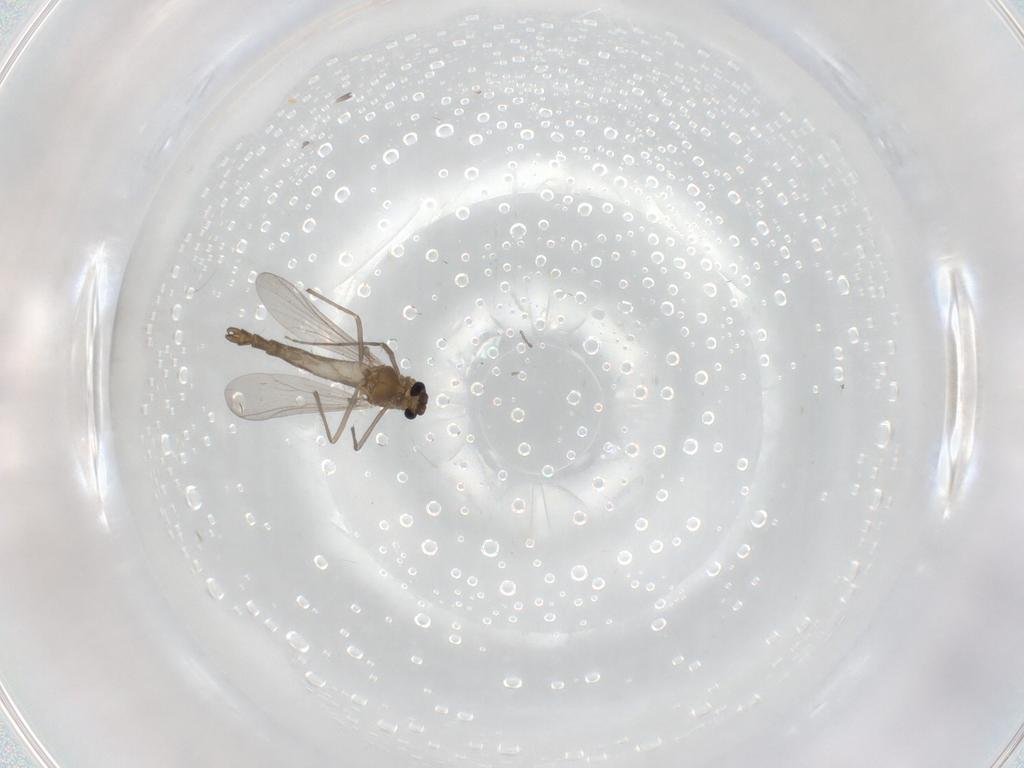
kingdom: Animalia
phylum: Arthropoda
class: Insecta
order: Diptera
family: Chironomidae
